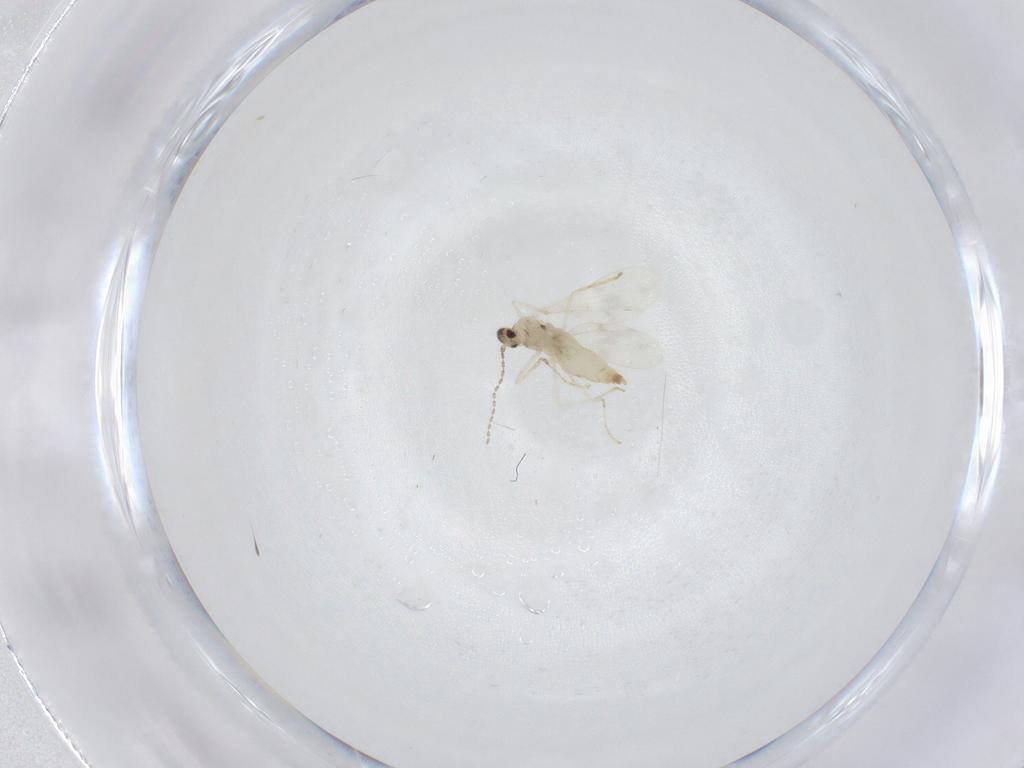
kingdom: Animalia
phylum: Arthropoda
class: Insecta
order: Diptera
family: Cecidomyiidae
